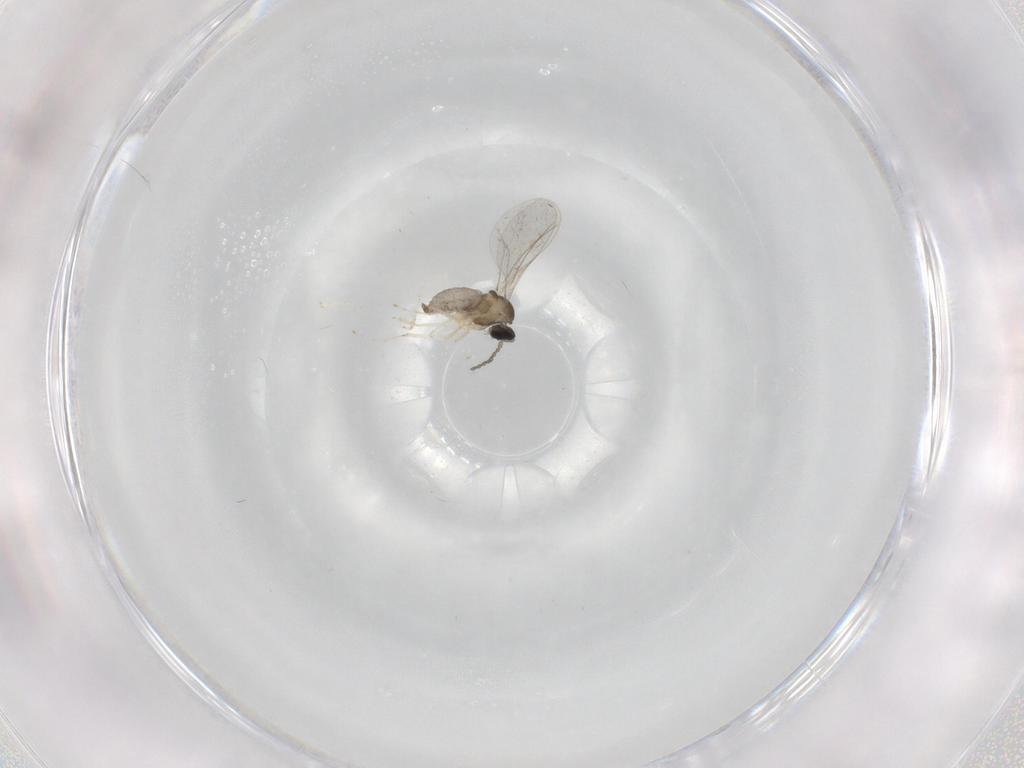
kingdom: Animalia
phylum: Arthropoda
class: Insecta
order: Diptera
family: Cecidomyiidae
